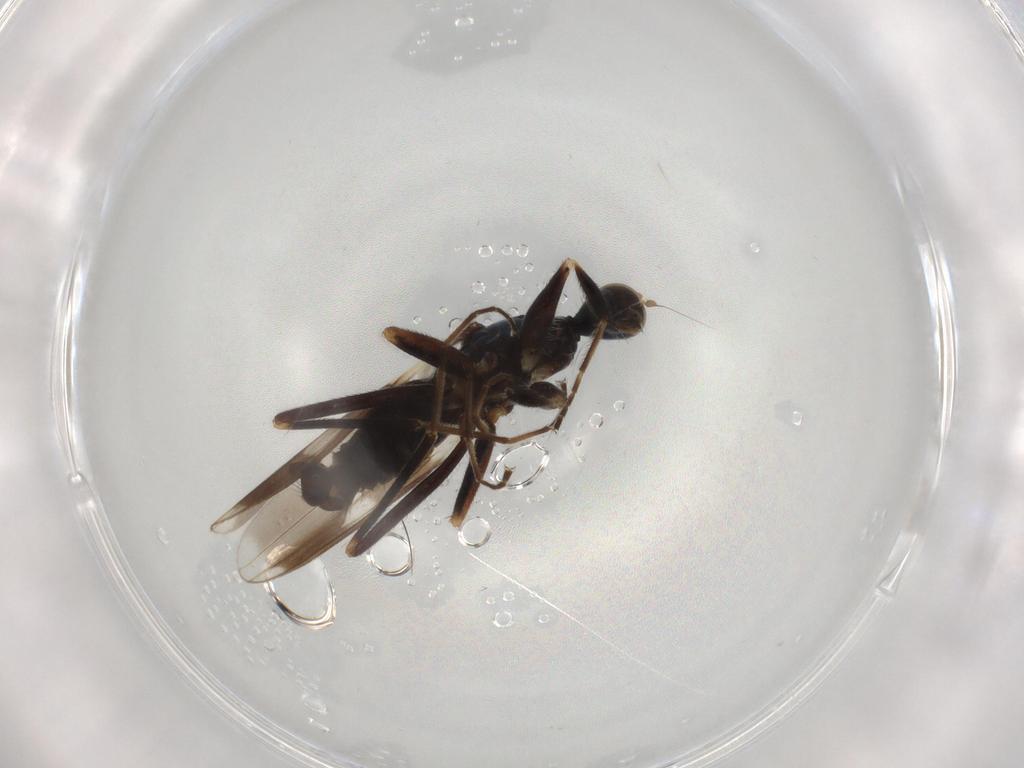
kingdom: Animalia
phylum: Arthropoda
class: Insecta
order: Diptera
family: Hybotidae
